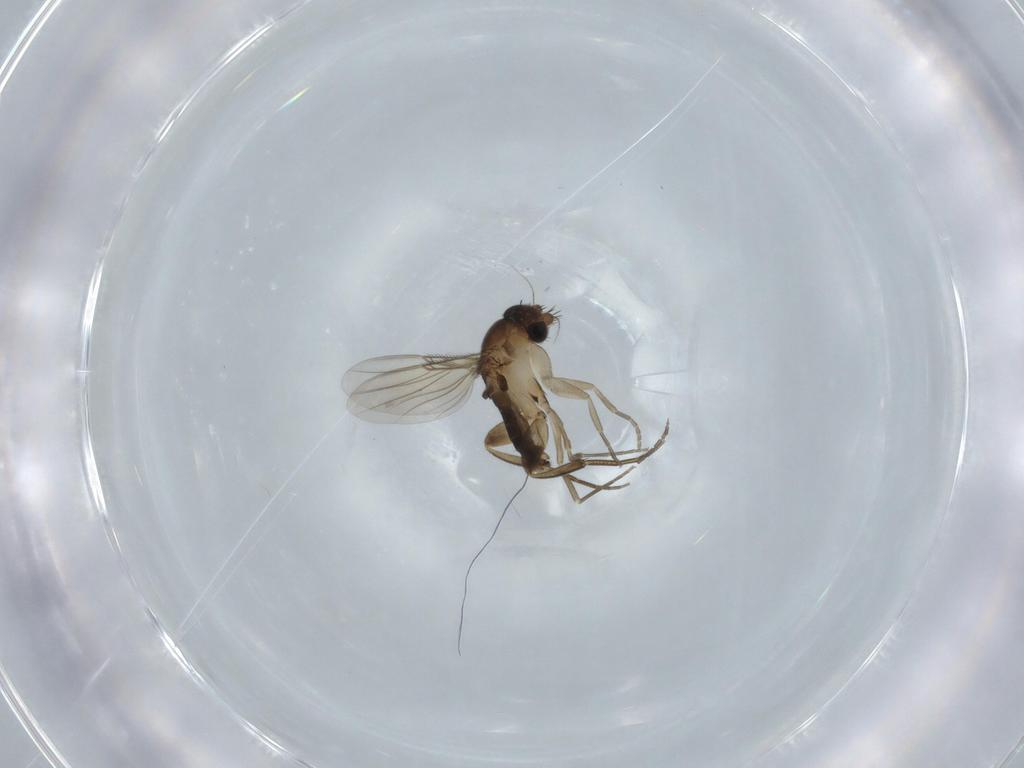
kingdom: Animalia
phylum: Arthropoda
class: Insecta
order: Diptera
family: Phoridae
